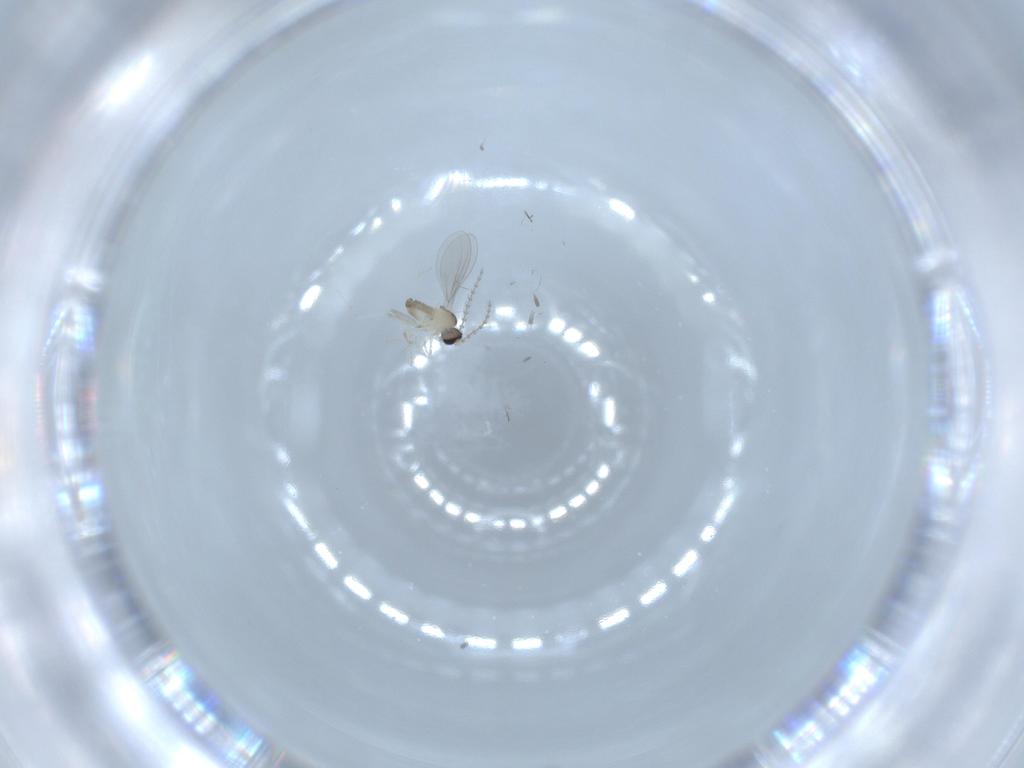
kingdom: Animalia
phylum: Arthropoda
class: Insecta
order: Diptera
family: Cecidomyiidae
